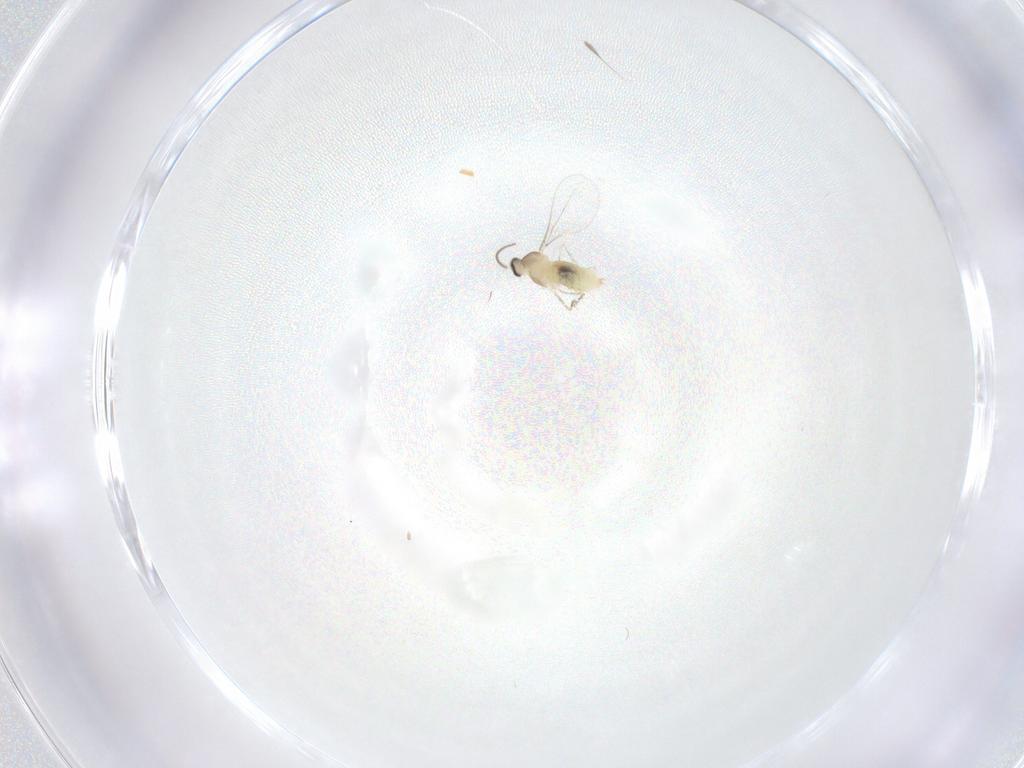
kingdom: Animalia
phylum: Arthropoda
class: Insecta
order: Diptera
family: Cecidomyiidae
